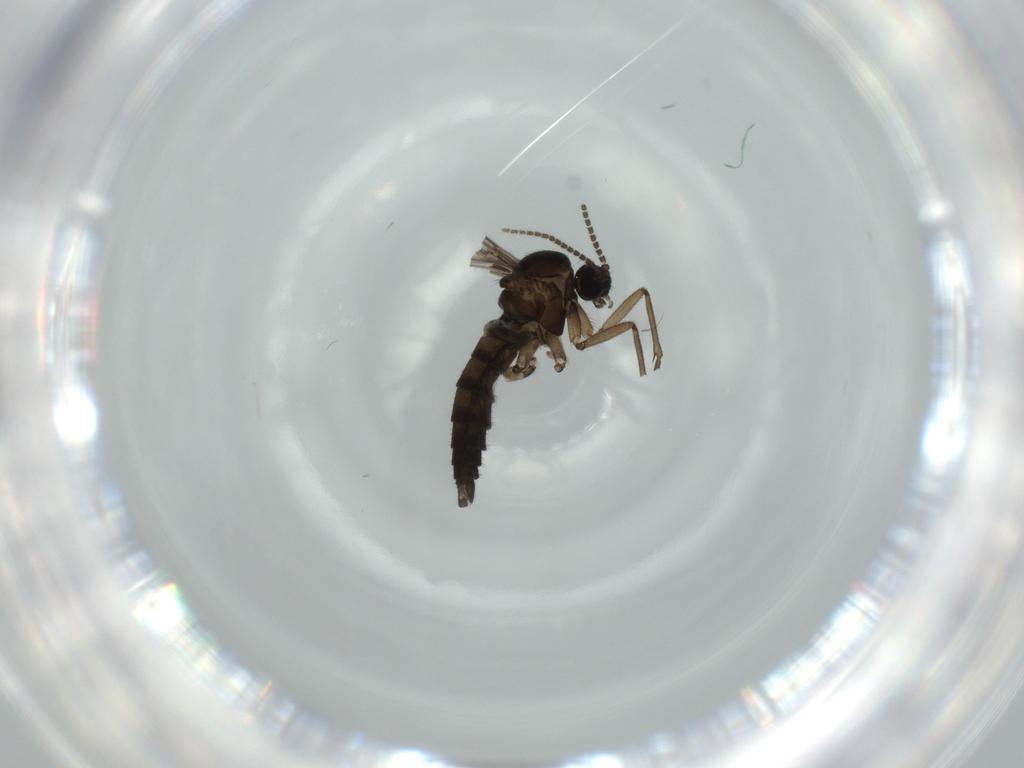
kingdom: Animalia
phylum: Arthropoda
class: Insecta
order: Diptera
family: Sciaridae
